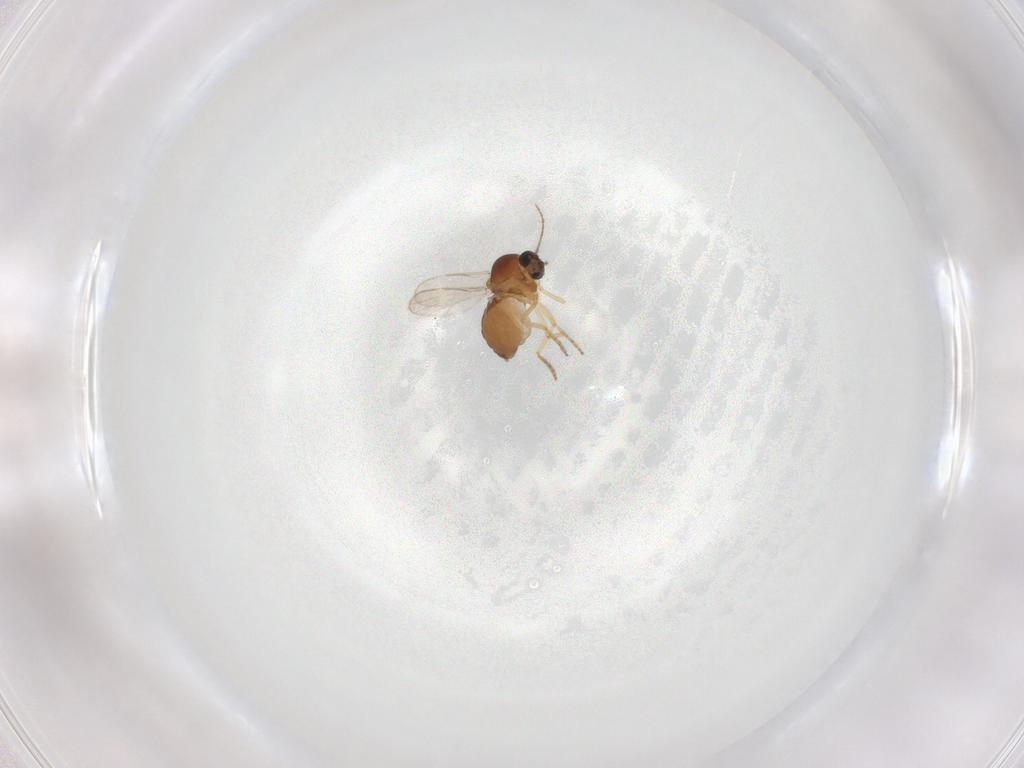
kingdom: Animalia
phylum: Arthropoda
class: Insecta
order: Diptera
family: Ceratopogonidae
